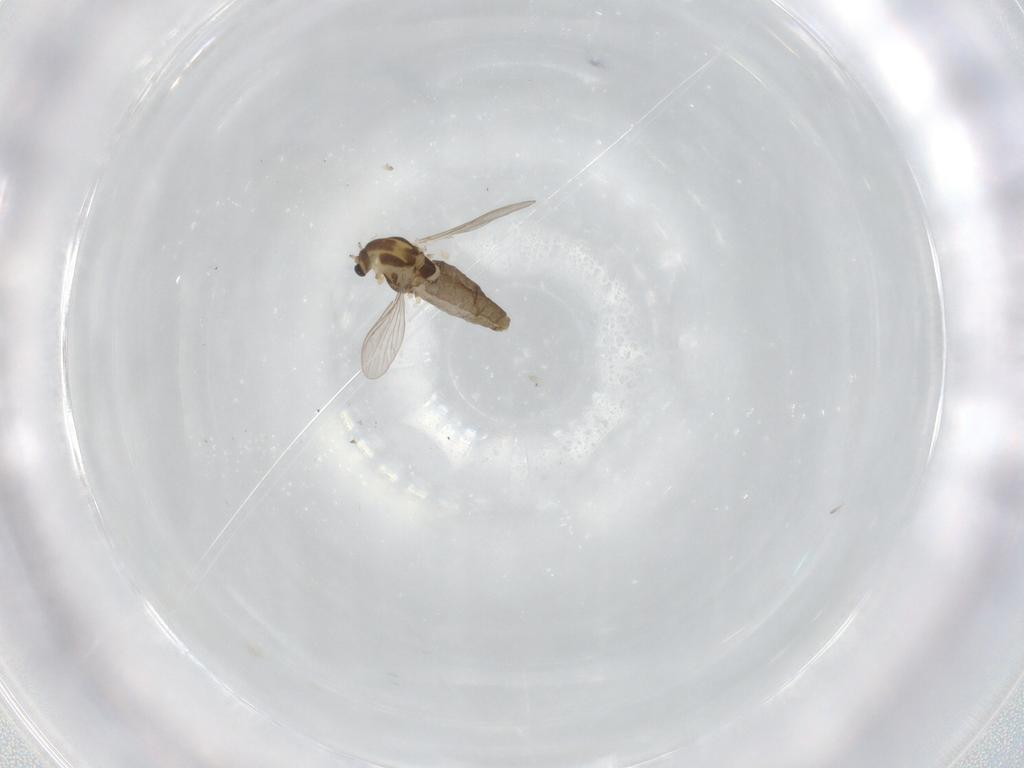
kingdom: Animalia
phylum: Arthropoda
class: Insecta
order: Diptera
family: Chironomidae
